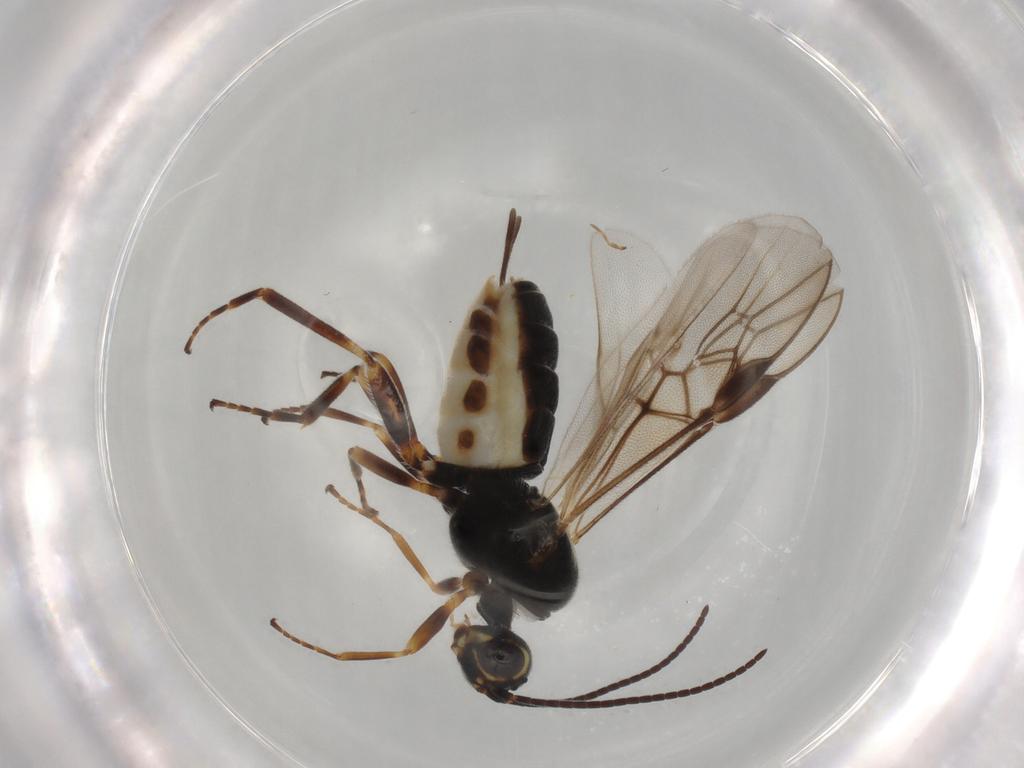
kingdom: Animalia
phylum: Arthropoda
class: Insecta
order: Hymenoptera
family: Braconidae
